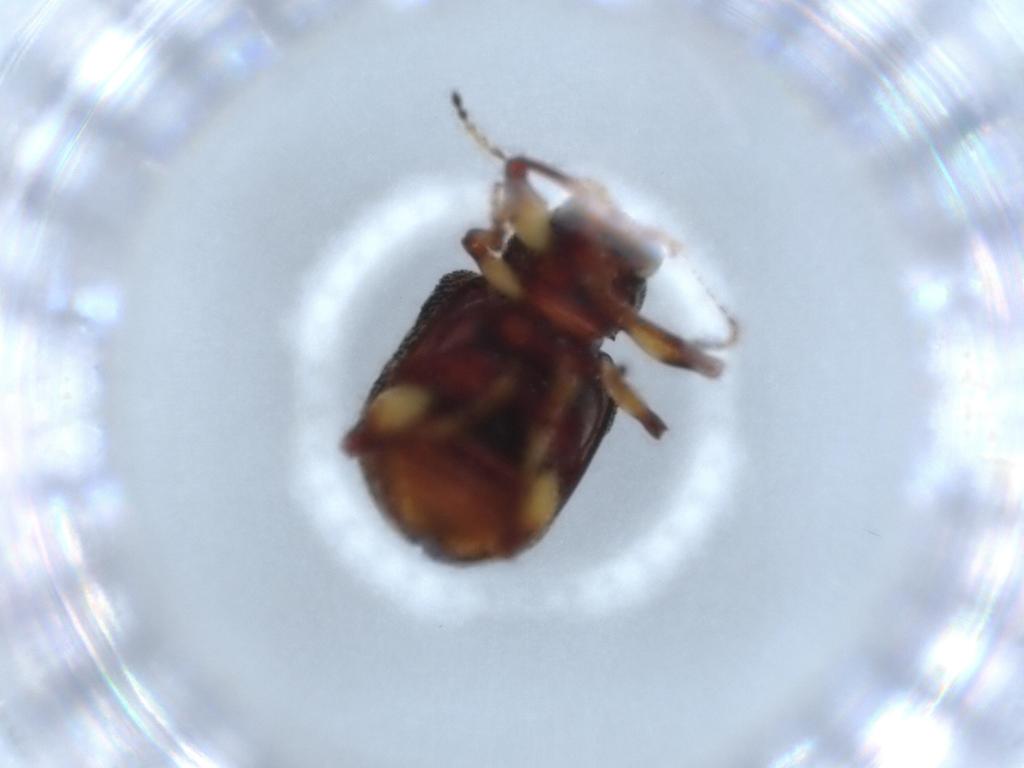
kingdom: Animalia
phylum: Arthropoda
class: Insecta
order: Coleoptera
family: Chrysomelidae
